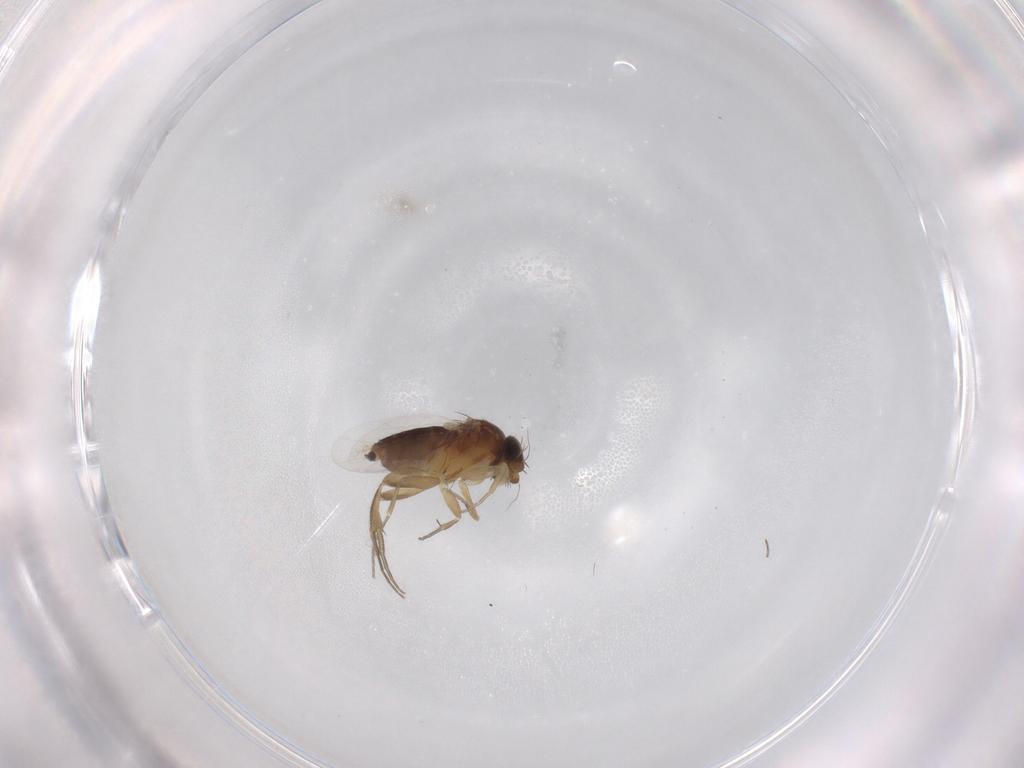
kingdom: Animalia
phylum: Arthropoda
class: Insecta
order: Diptera
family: Phoridae
